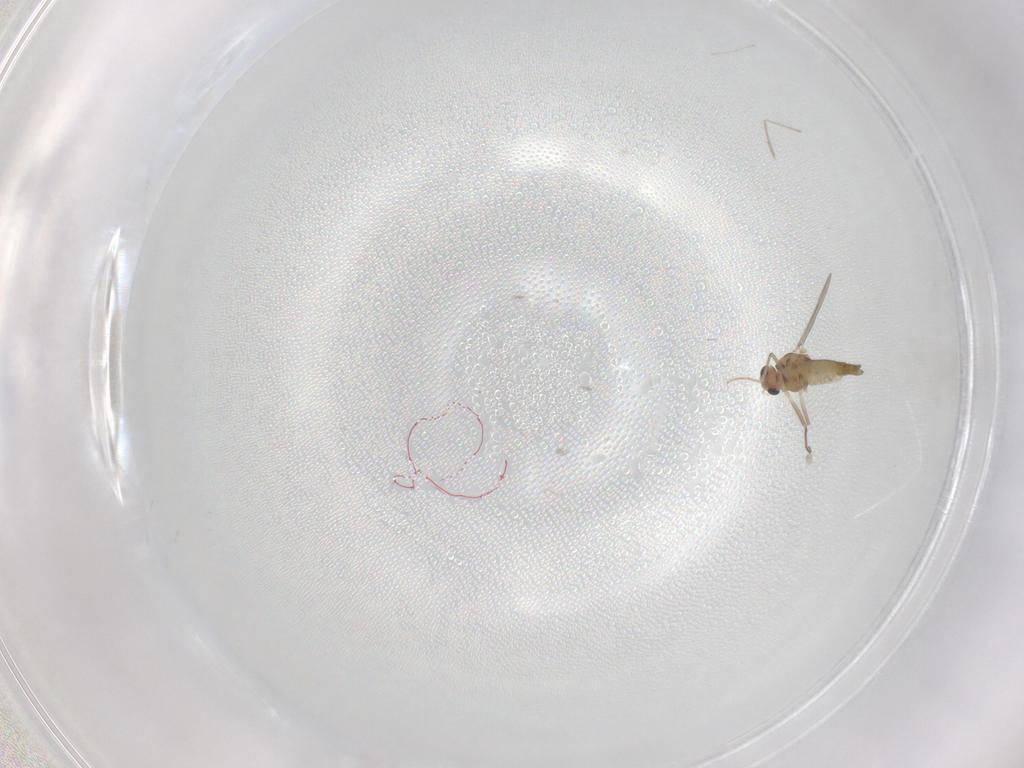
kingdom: Animalia
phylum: Arthropoda
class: Insecta
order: Diptera
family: Chironomidae
